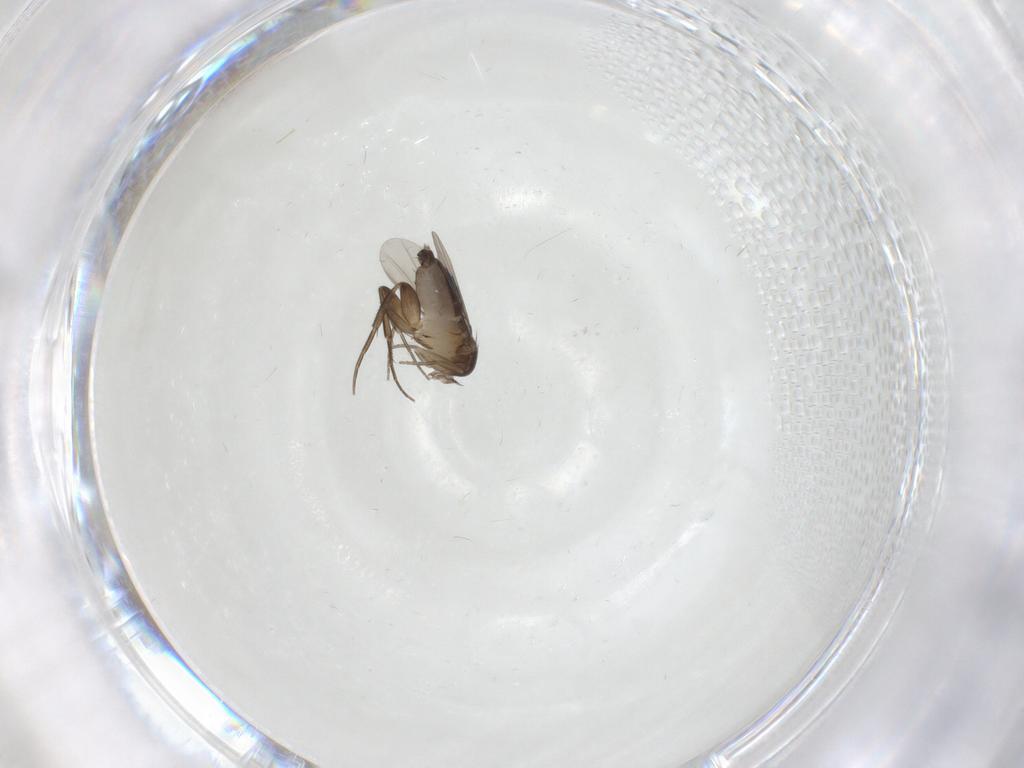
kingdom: Animalia
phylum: Arthropoda
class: Insecta
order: Diptera
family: Phoridae
